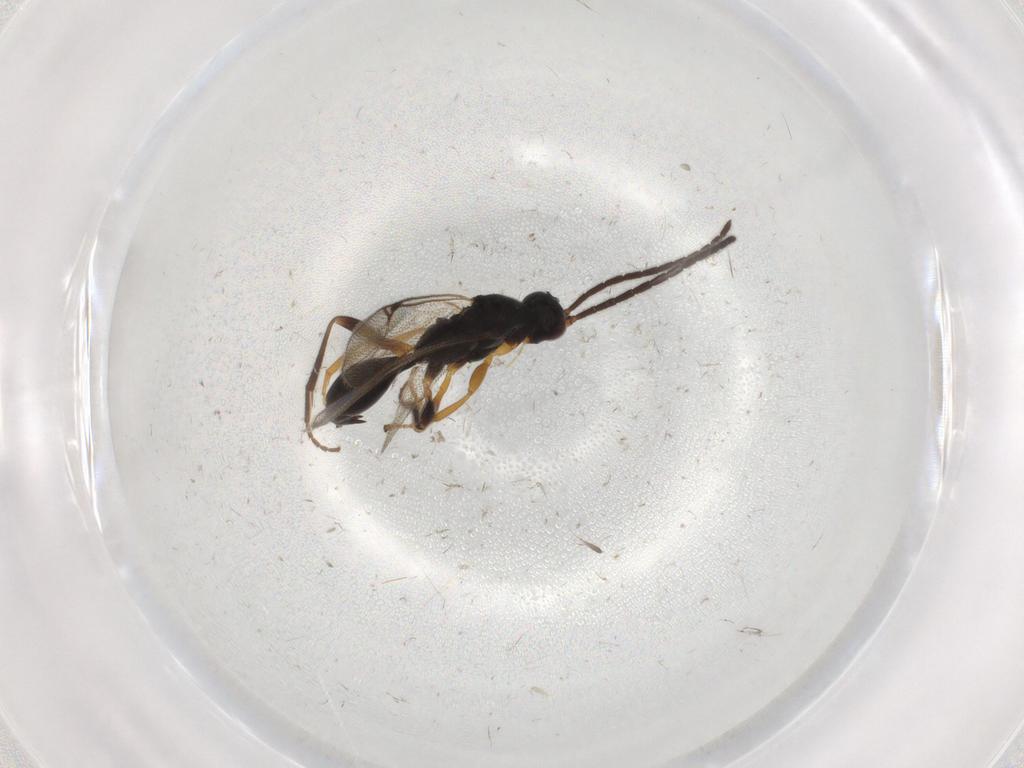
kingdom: Animalia
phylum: Arthropoda
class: Insecta
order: Hymenoptera
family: Proctotrupidae
